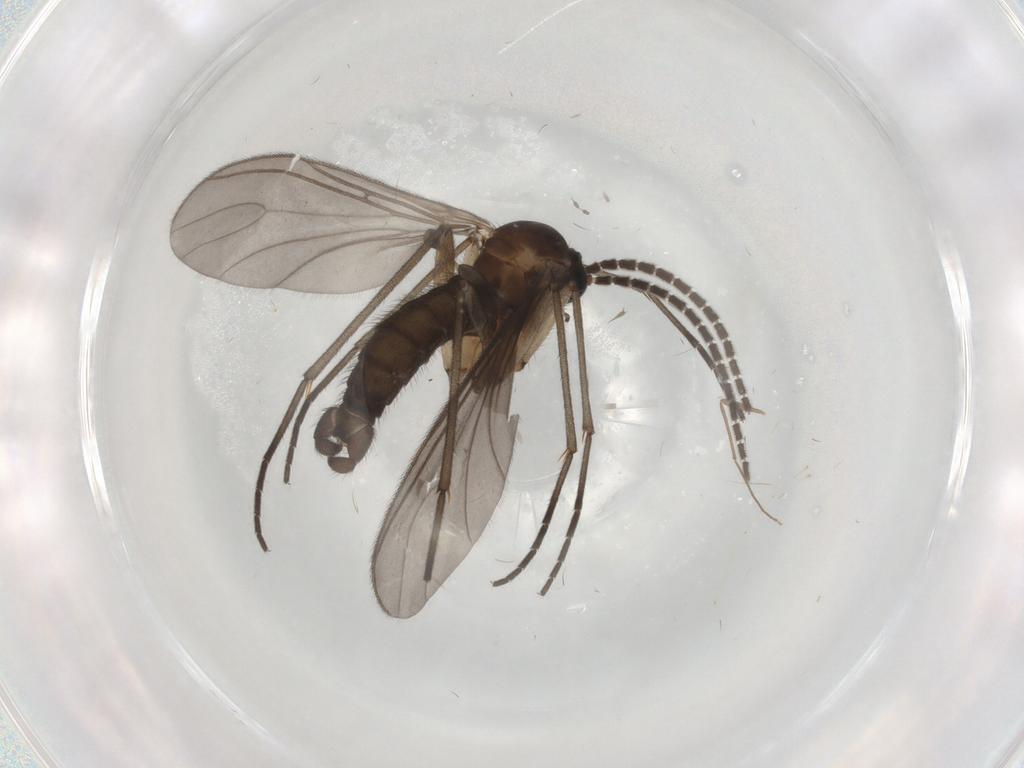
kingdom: Animalia
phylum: Arthropoda
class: Insecta
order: Diptera
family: Sciaridae
